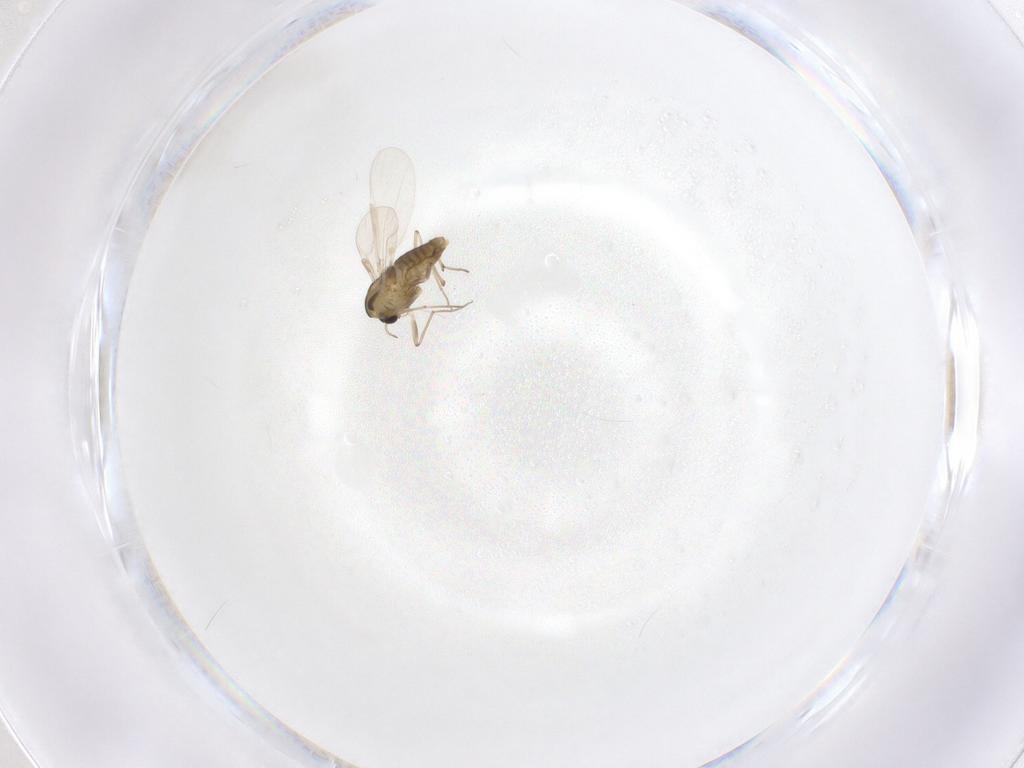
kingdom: Animalia
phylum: Arthropoda
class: Insecta
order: Diptera
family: Chironomidae
